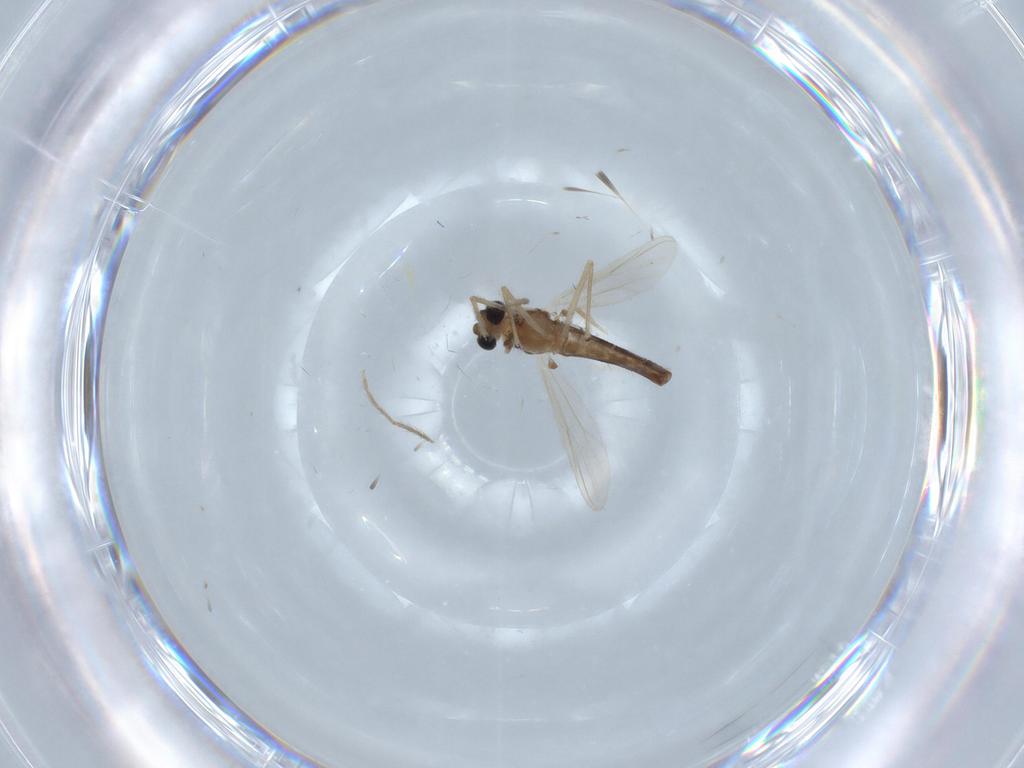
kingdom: Animalia
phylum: Arthropoda
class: Insecta
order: Diptera
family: Chironomidae
